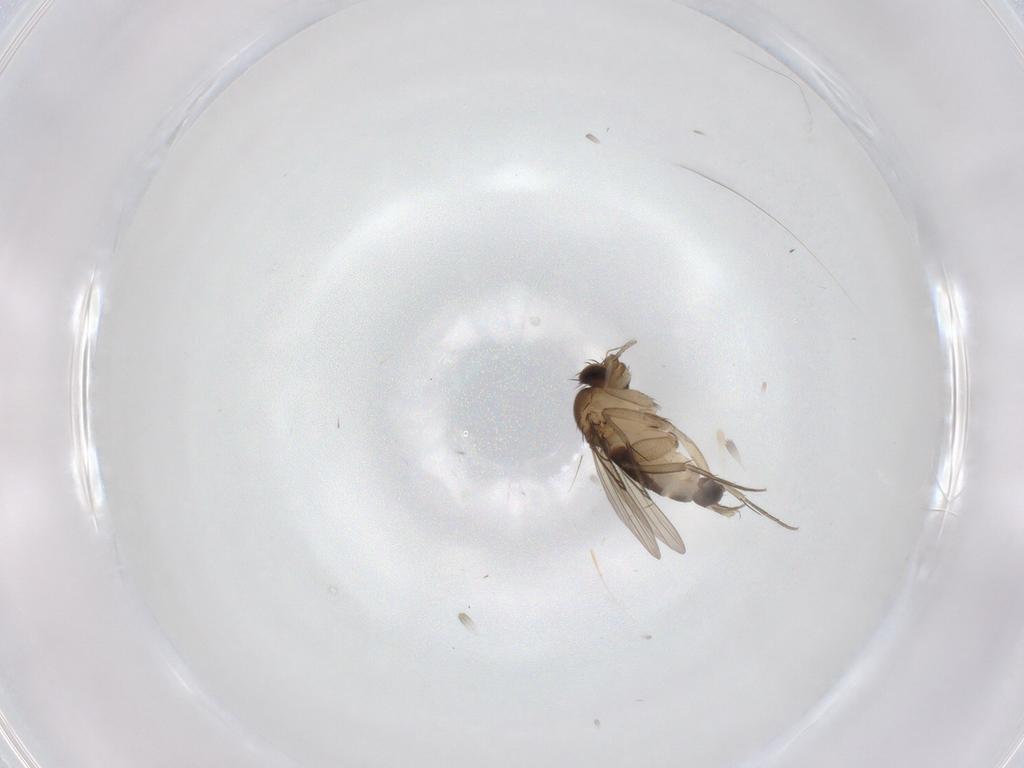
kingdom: Animalia
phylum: Arthropoda
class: Insecta
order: Diptera
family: Phoridae
